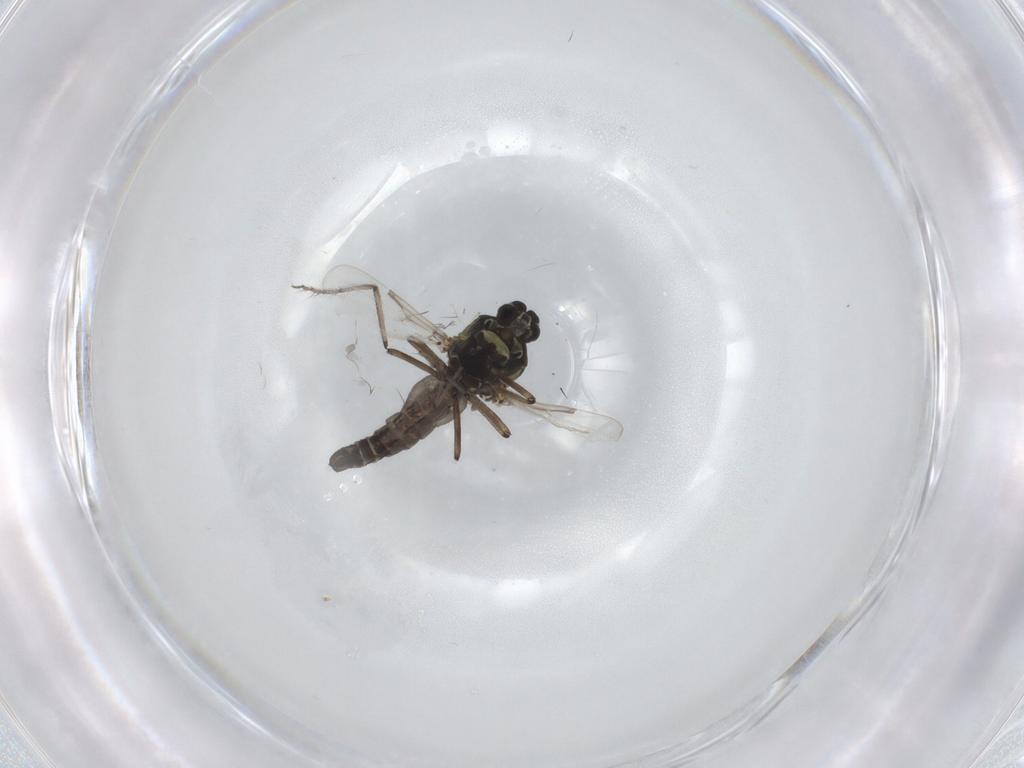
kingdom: Animalia
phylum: Arthropoda
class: Insecta
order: Diptera
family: Chironomidae
